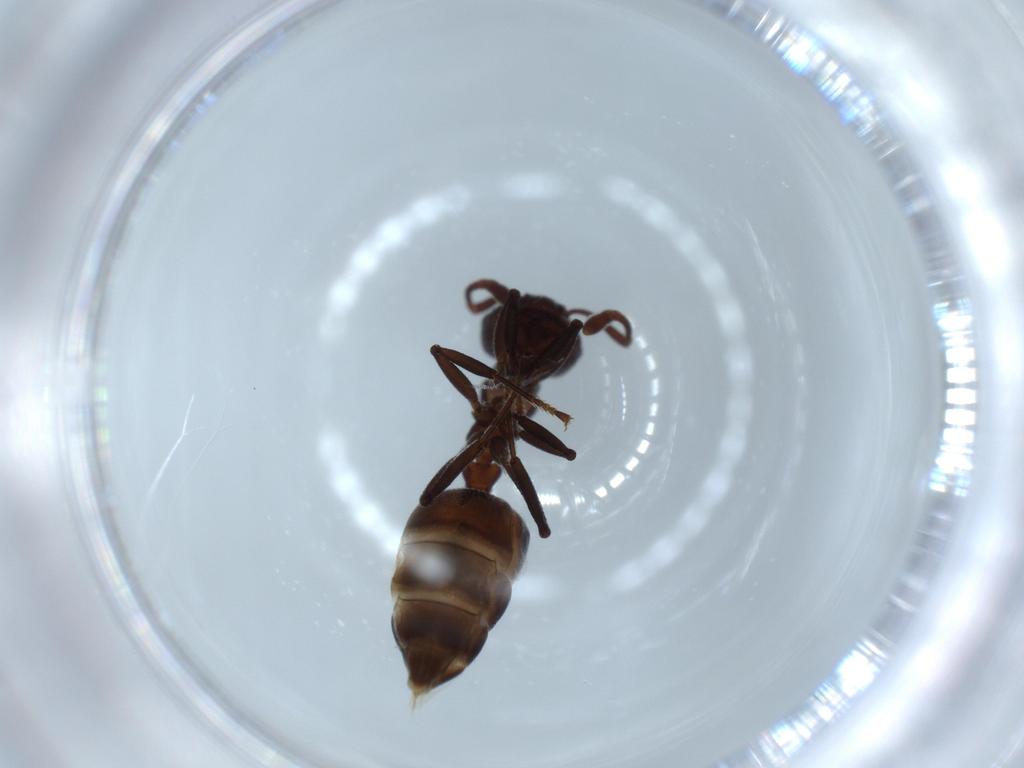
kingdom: Animalia
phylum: Arthropoda
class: Insecta
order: Hymenoptera
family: Formicidae
